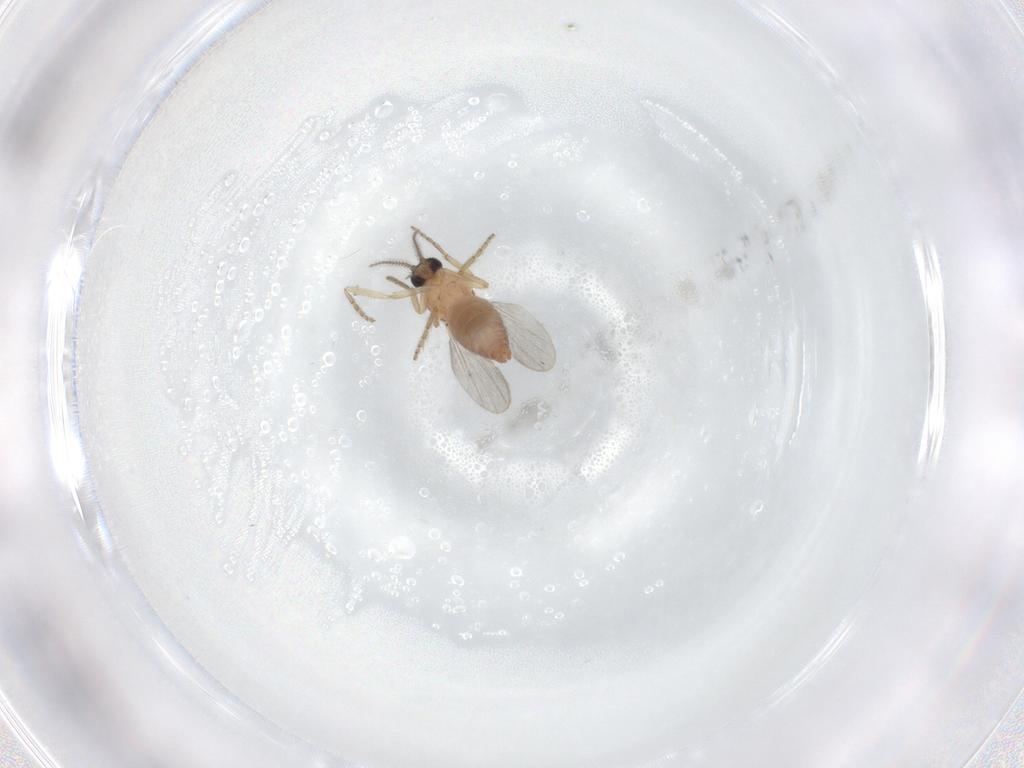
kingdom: Animalia
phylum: Arthropoda
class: Insecta
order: Diptera
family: Ceratopogonidae
